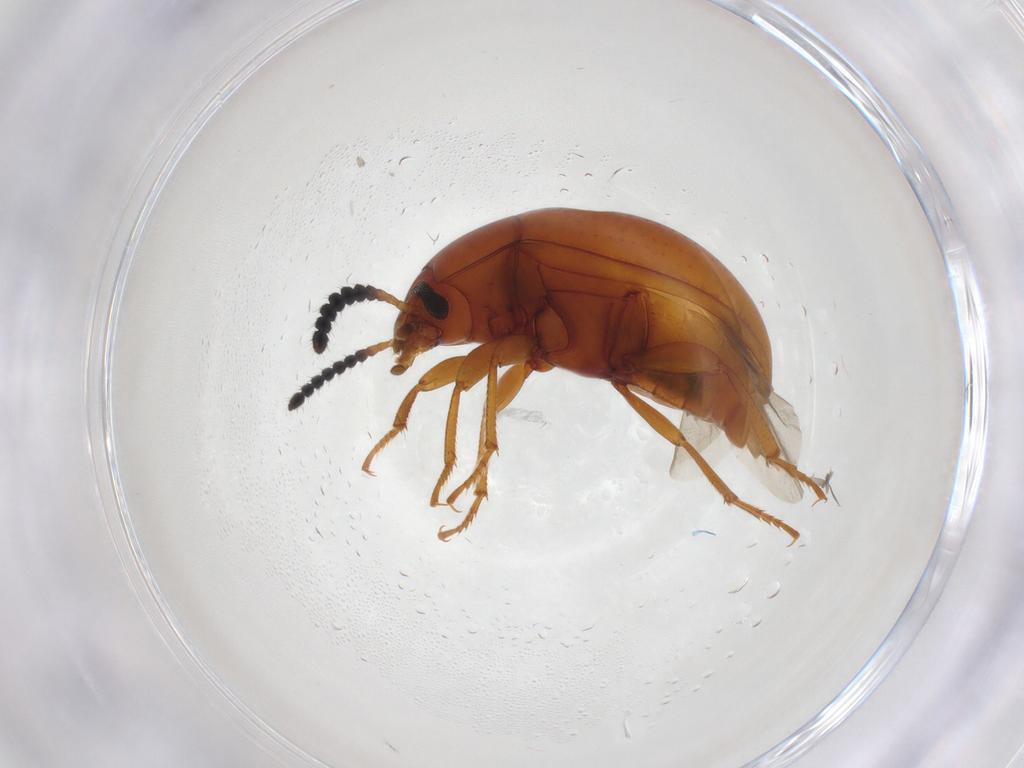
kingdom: Animalia
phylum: Arthropoda
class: Insecta
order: Coleoptera
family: Tenebrionidae
